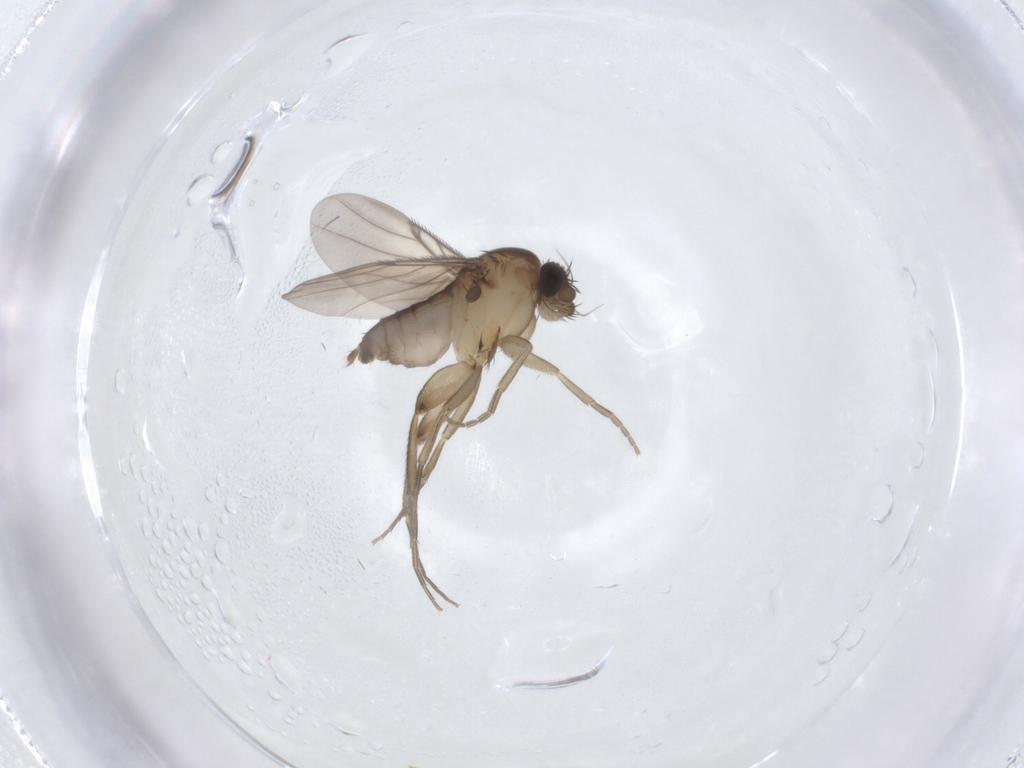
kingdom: Animalia
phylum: Arthropoda
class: Insecta
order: Diptera
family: Phoridae
